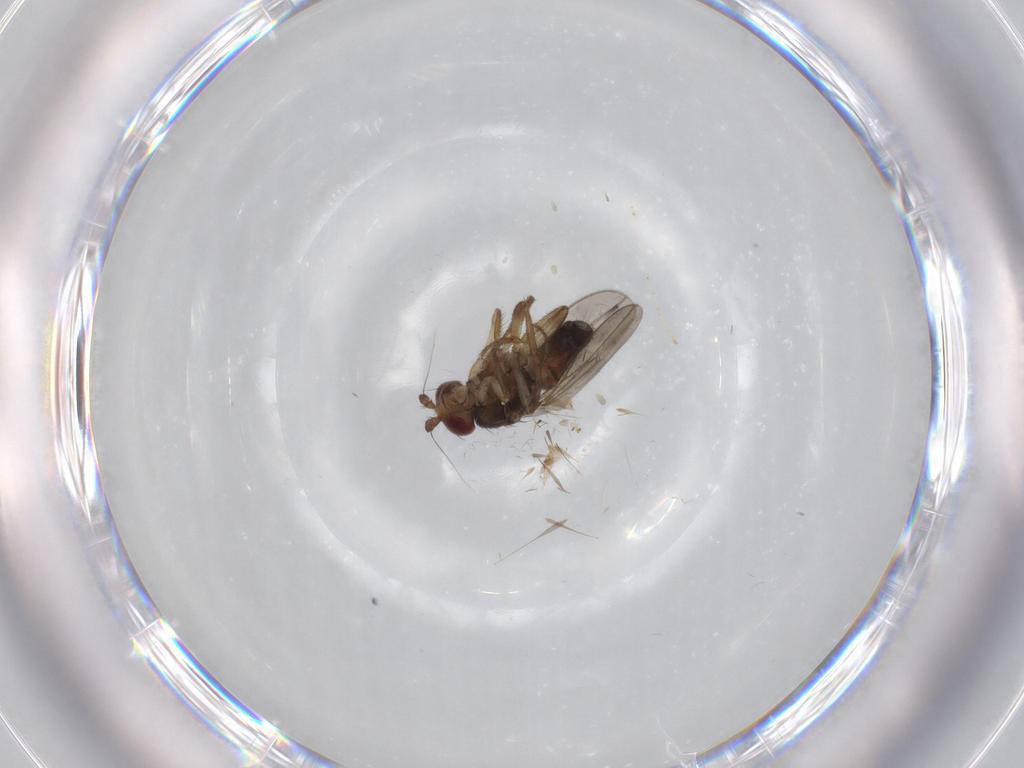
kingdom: Animalia
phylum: Arthropoda
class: Insecta
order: Diptera
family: Sphaeroceridae
